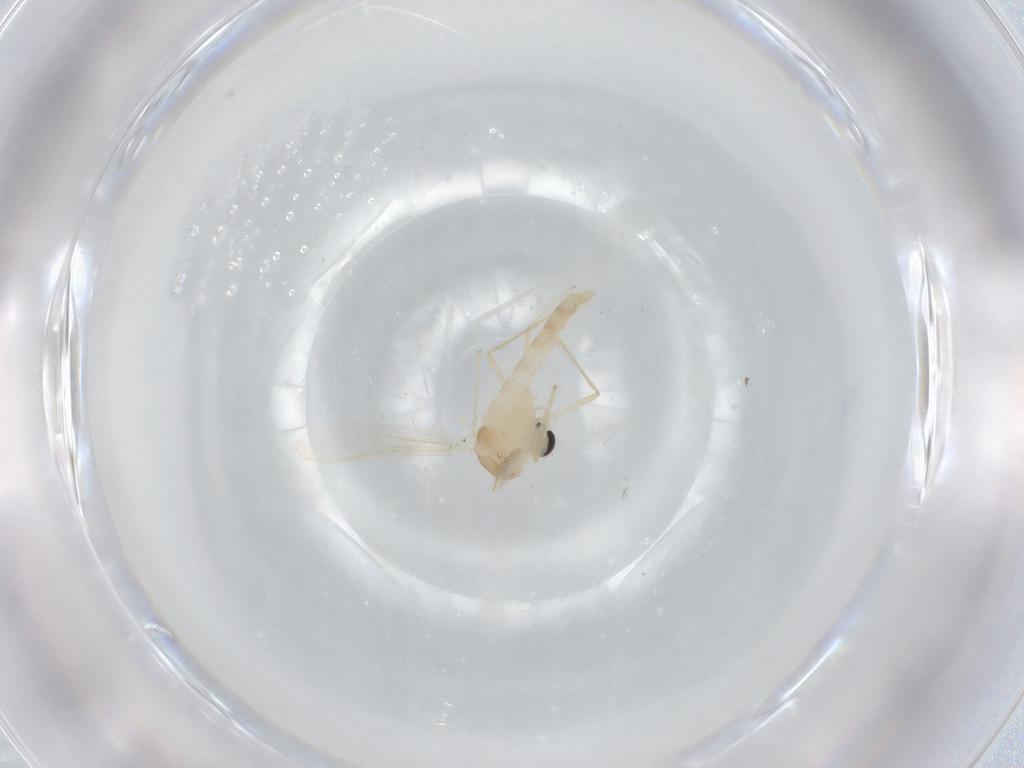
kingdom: Animalia
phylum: Arthropoda
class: Insecta
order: Diptera
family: Chironomidae
